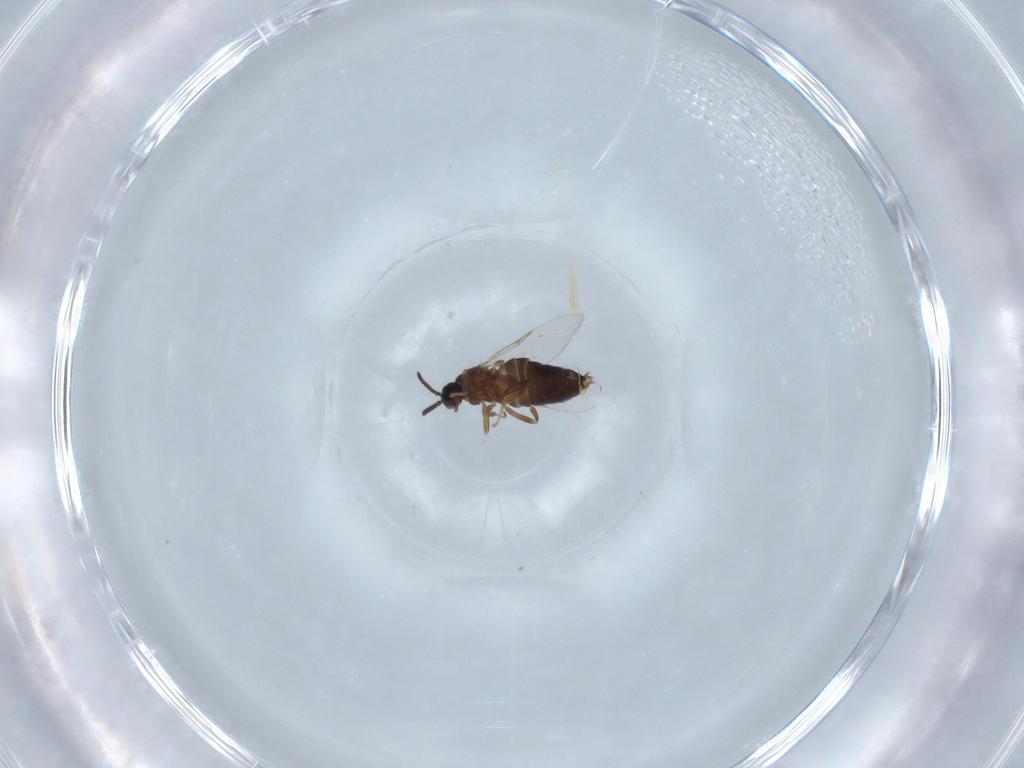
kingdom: Animalia
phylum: Arthropoda
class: Insecta
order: Diptera
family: Scatopsidae
